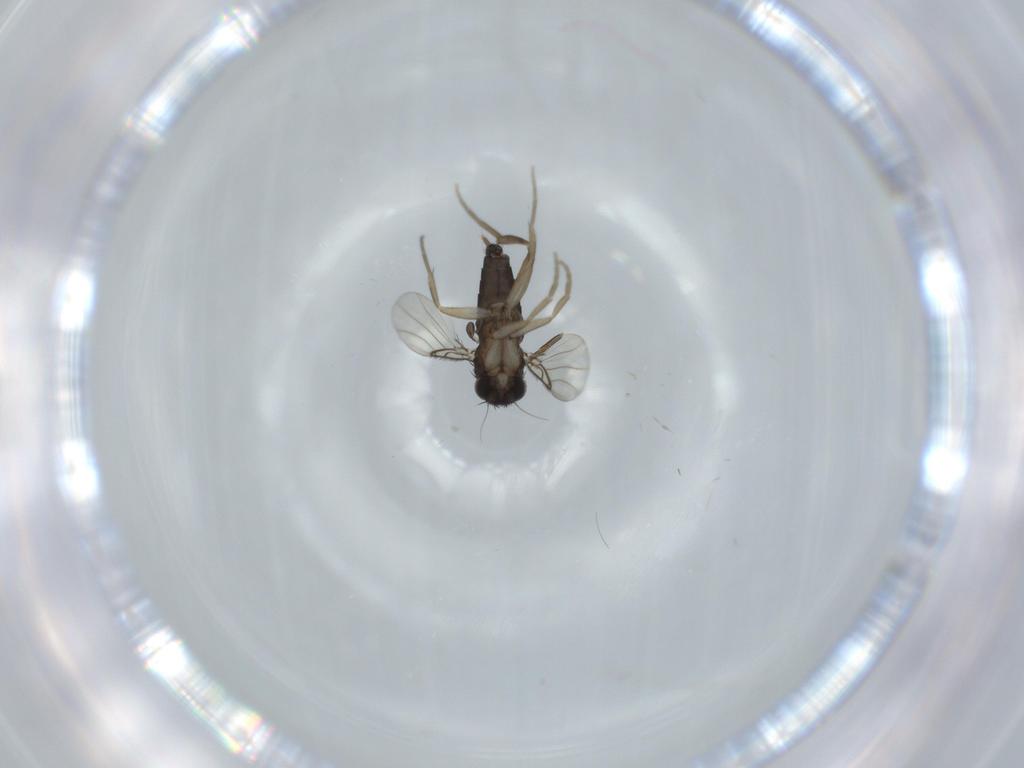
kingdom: Animalia
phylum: Arthropoda
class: Insecta
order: Diptera
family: Phoridae
